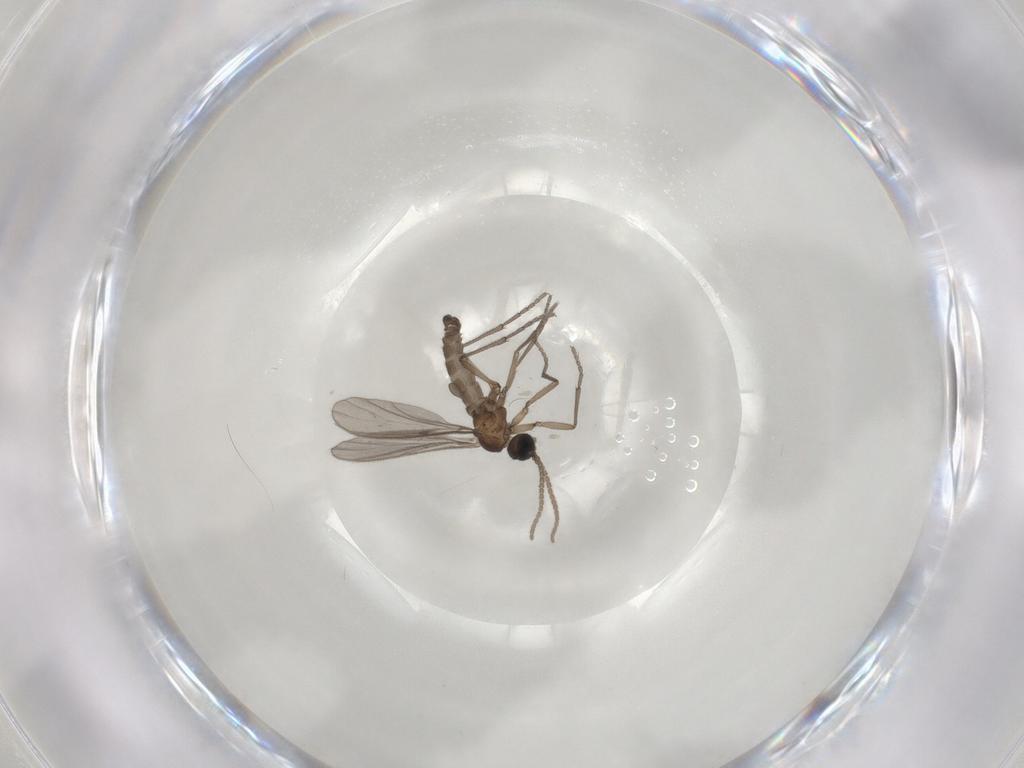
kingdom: Animalia
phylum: Arthropoda
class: Insecta
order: Diptera
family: Sciaridae
